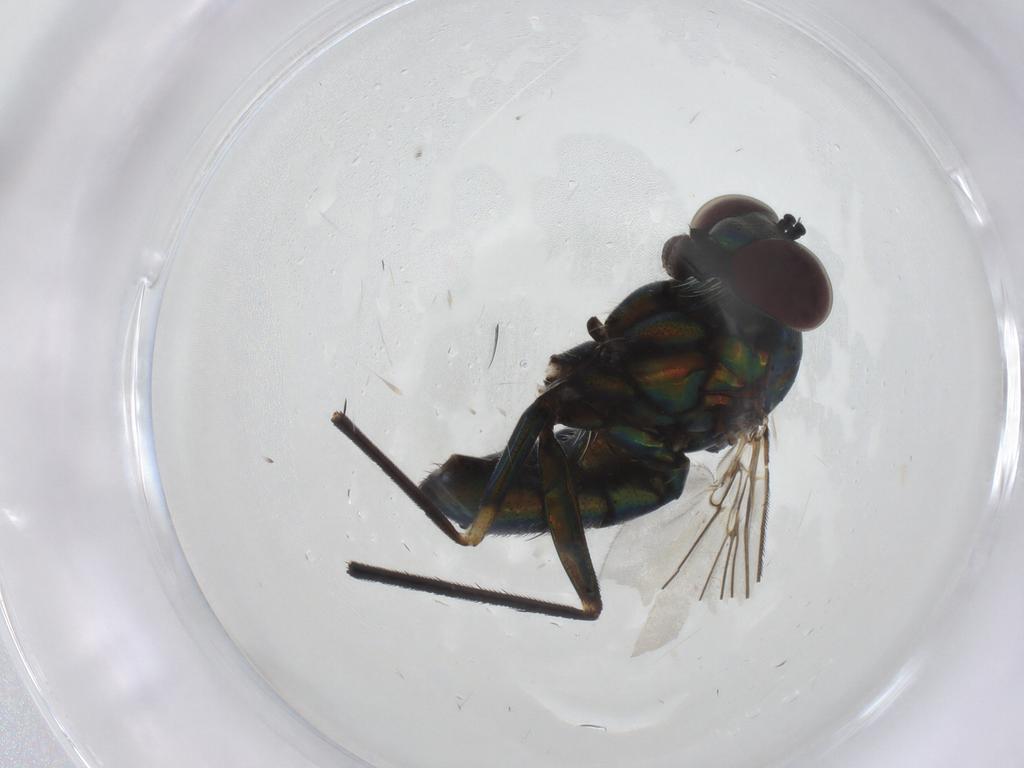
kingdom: Animalia
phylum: Arthropoda
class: Insecta
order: Diptera
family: Dolichopodidae
